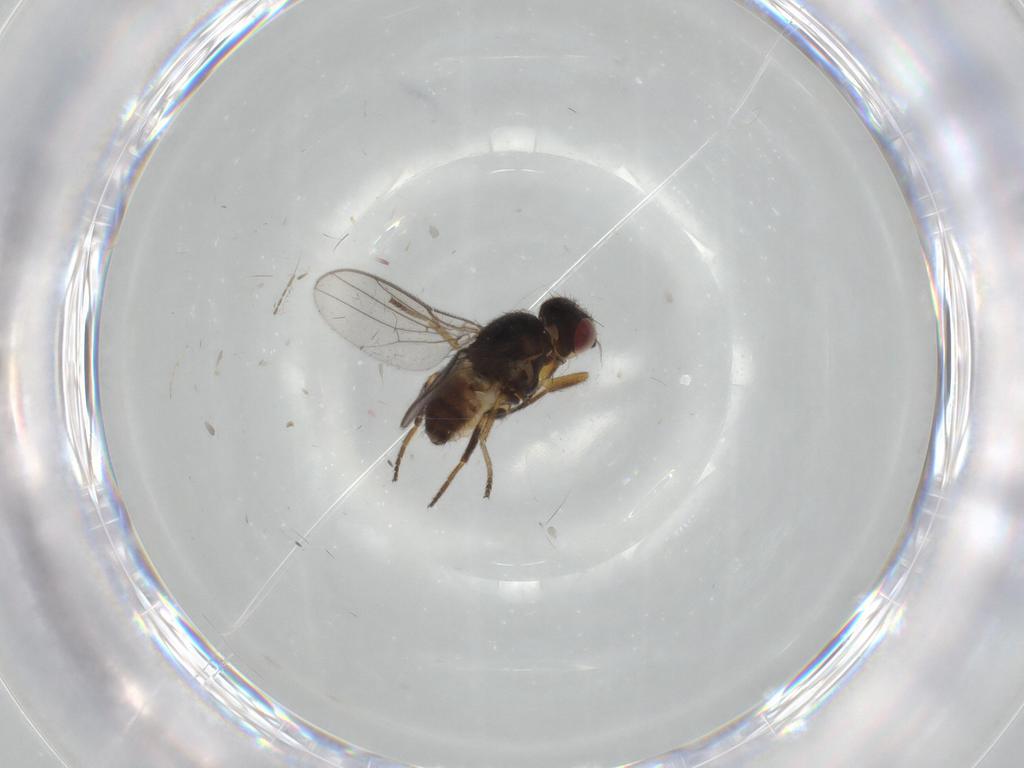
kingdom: Animalia
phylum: Arthropoda
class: Insecta
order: Diptera
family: Chloropidae
